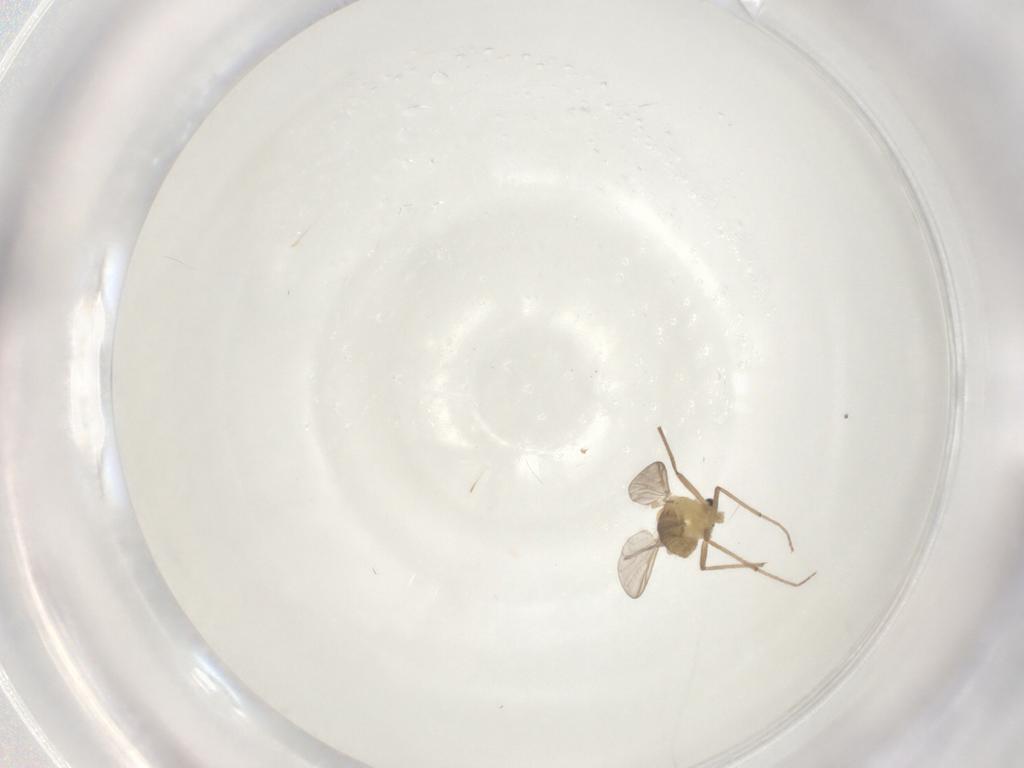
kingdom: Animalia
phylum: Arthropoda
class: Insecta
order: Diptera
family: Chironomidae
